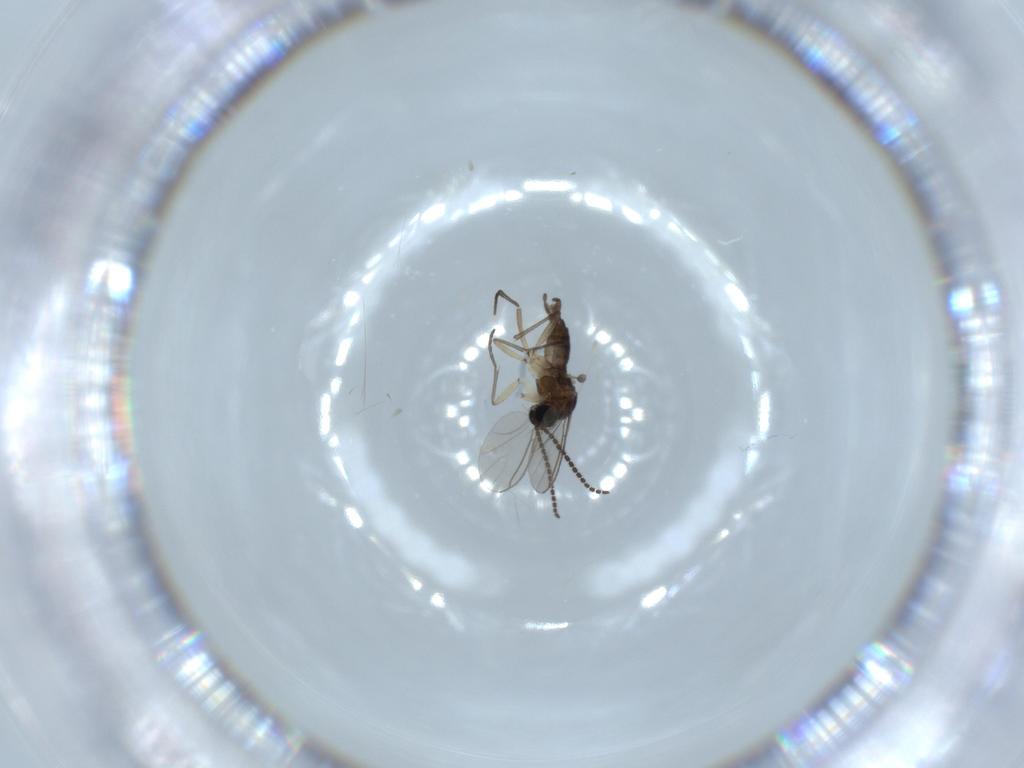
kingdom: Animalia
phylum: Arthropoda
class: Insecta
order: Diptera
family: Sciaridae
